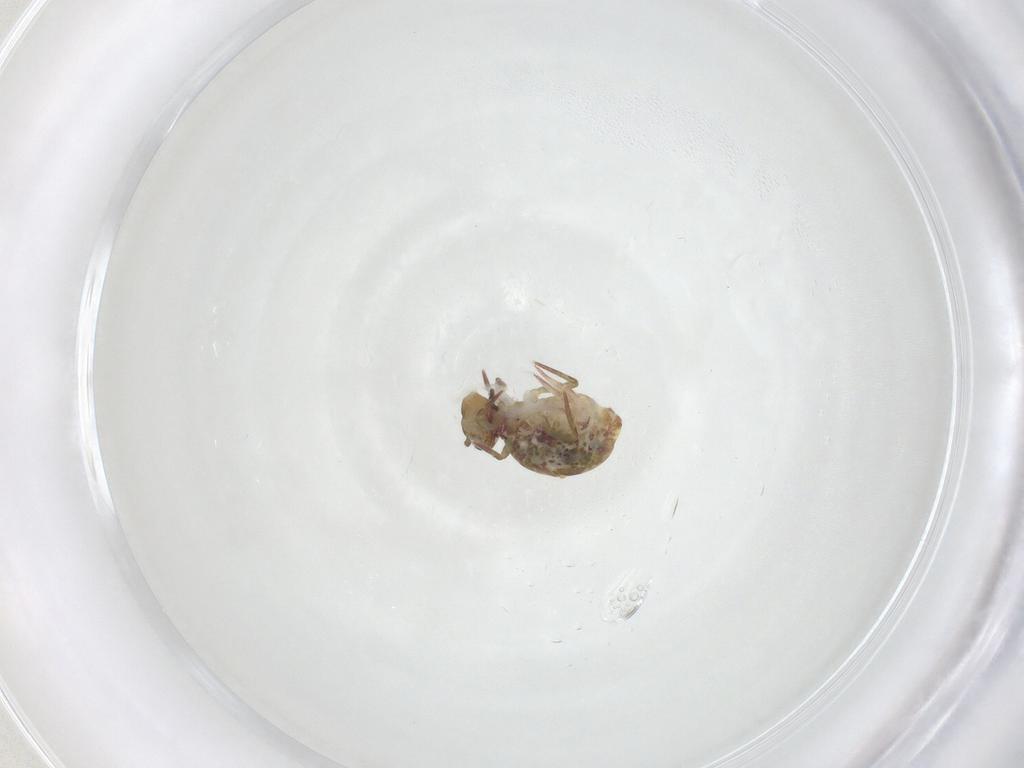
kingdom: Animalia
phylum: Arthropoda
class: Collembola
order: Symphypleona
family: Dicyrtomidae
